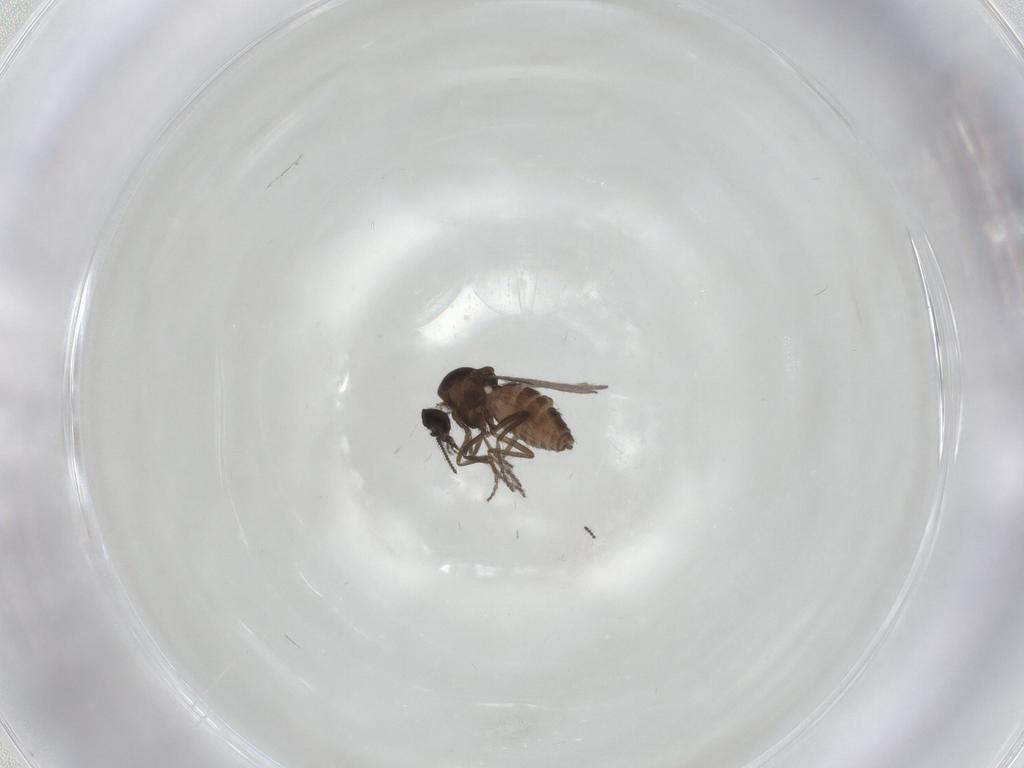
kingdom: Animalia
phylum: Arthropoda
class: Insecta
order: Diptera
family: Ceratopogonidae
